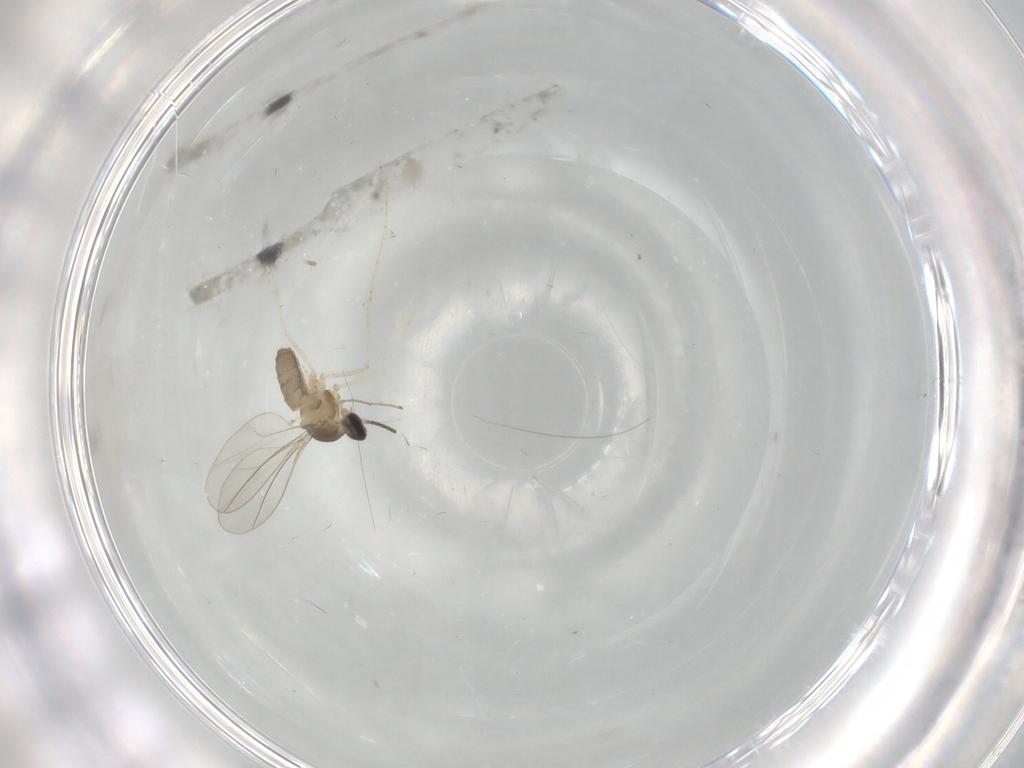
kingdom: Animalia
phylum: Arthropoda
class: Insecta
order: Diptera
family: Cecidomyiidae
